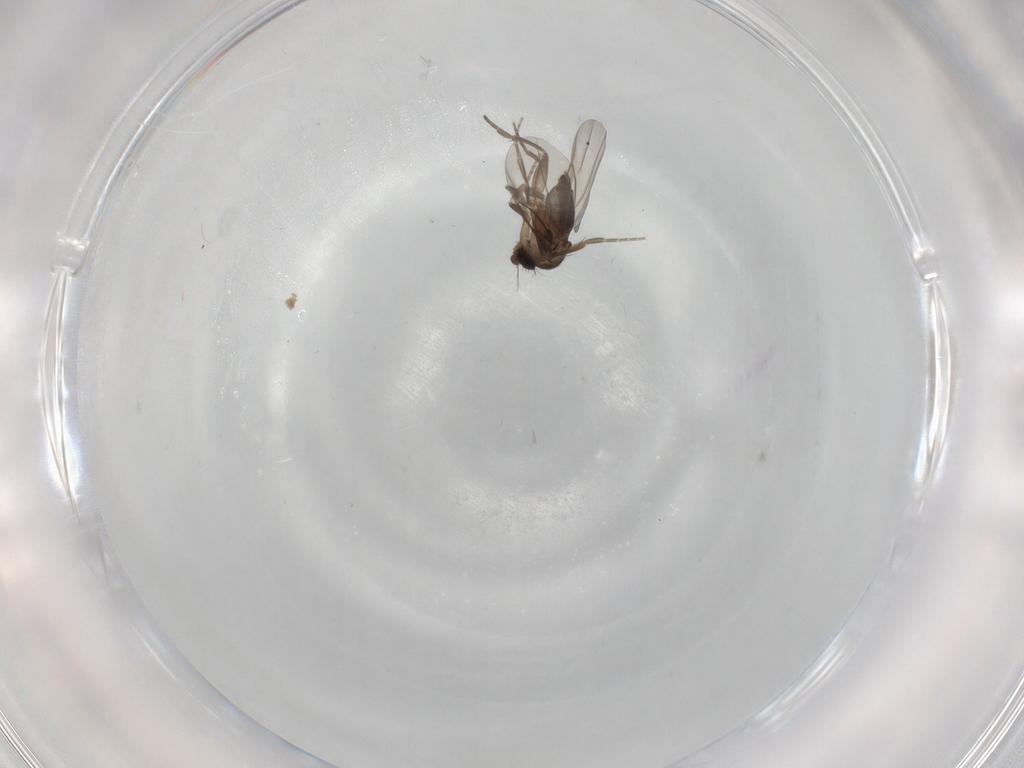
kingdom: Animalia
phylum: Arthropoda
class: Insecta
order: Diptera
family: Phoridae
